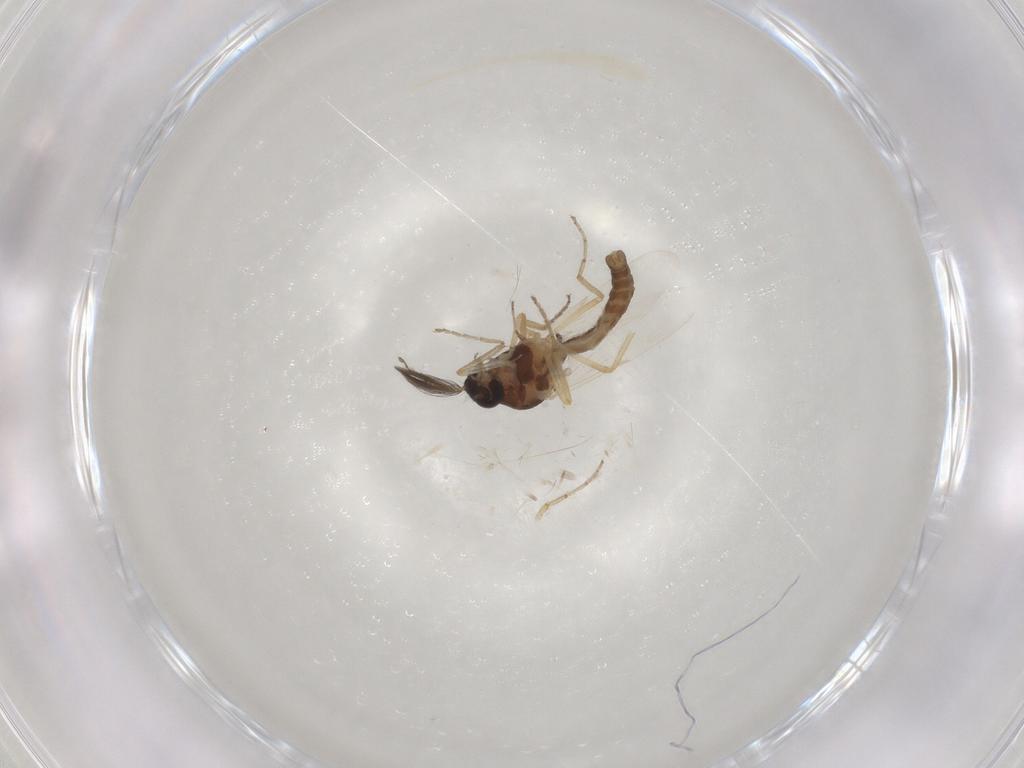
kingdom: Animalia
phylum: Arthropoda
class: Insecta
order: Diptera
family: Ceratopogonidae
